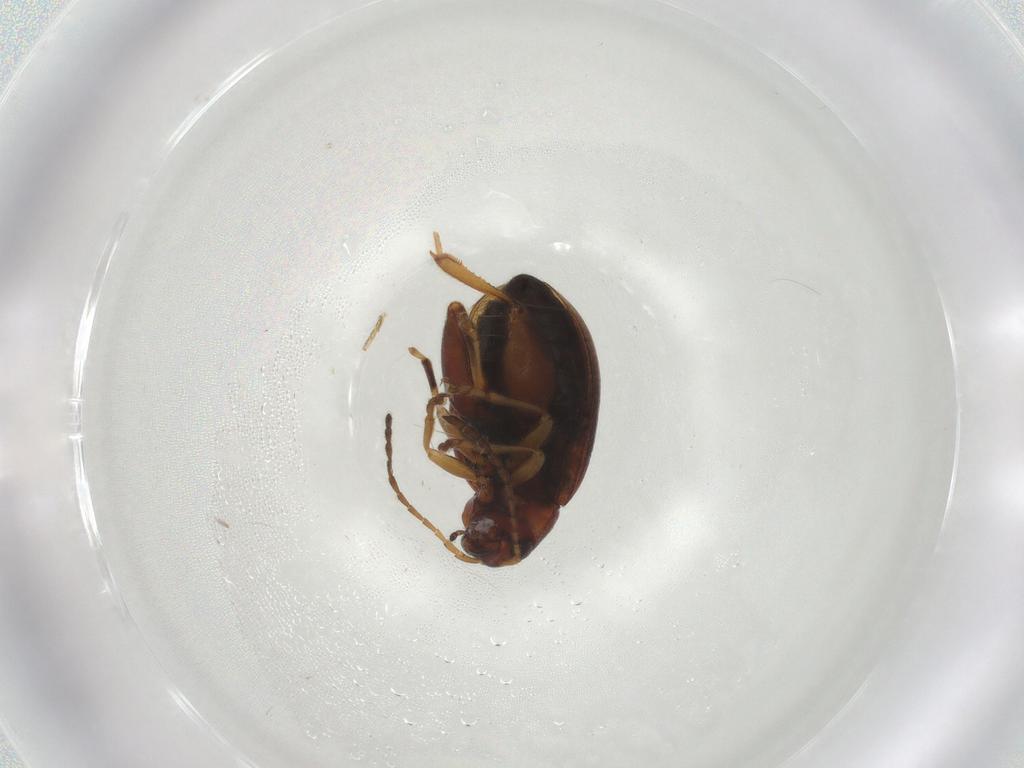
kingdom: Animalia
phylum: Arthropoda
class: Insecta
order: Coleoptera
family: Chrysomelidae
